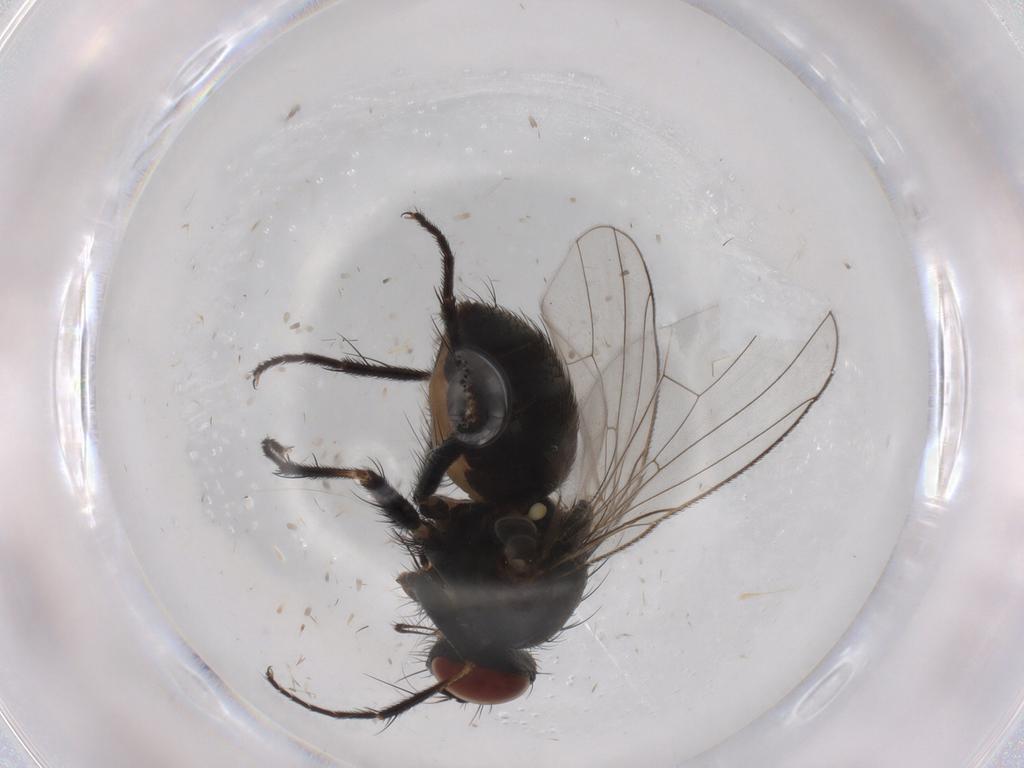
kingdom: Animalia
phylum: Arthropoda
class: Insecta
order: Diptera
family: Muscidae
